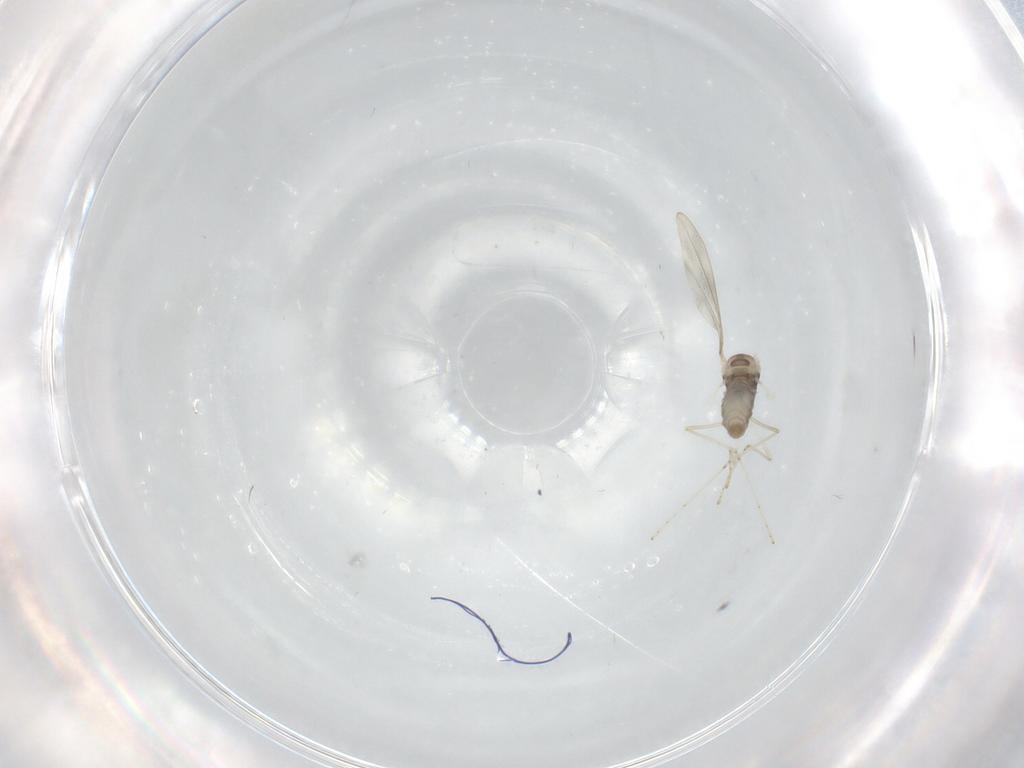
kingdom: Animalia
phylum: Arthropoda
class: Insecta
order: Diptera
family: Cecidomyiidae
